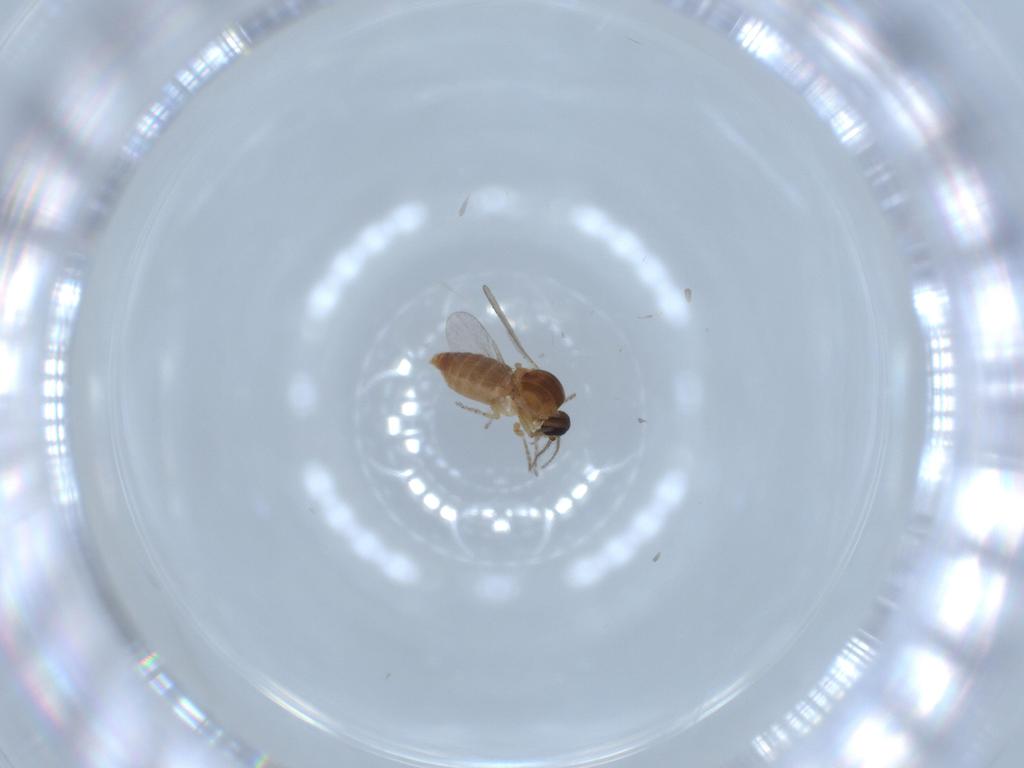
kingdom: Animalia
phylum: Arthropoda
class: Insecta
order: Diptera
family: Ceratopogonidae
